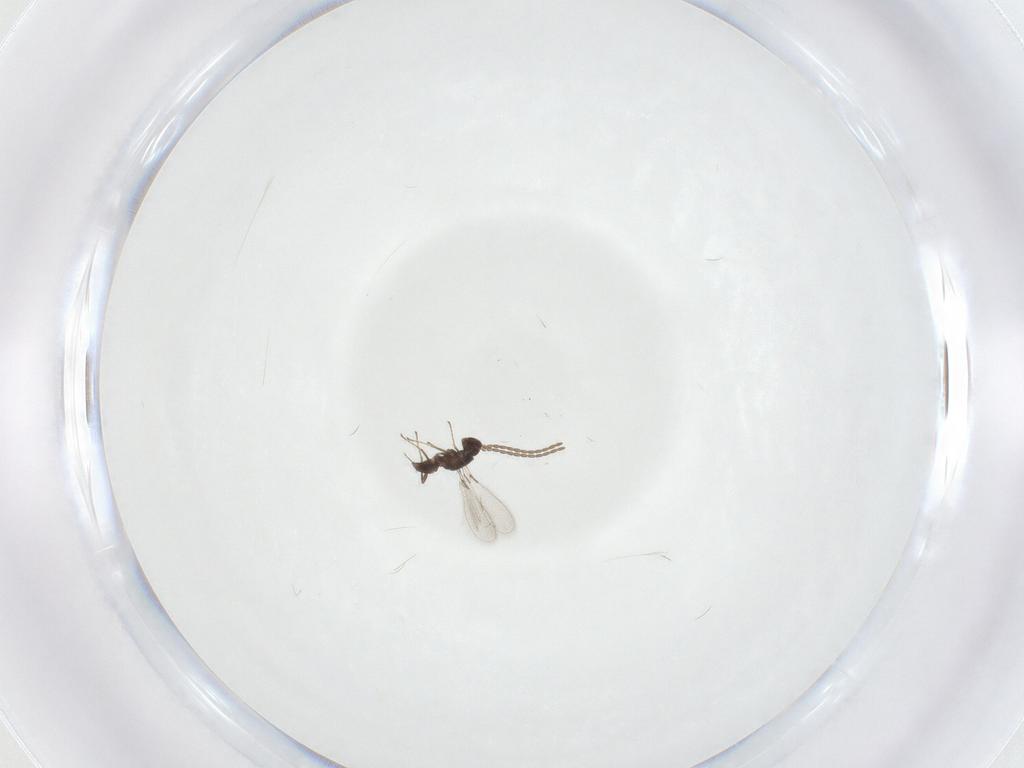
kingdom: Animalia
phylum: Arthropoda
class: Insecta
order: Hymenoptera
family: Mymaridae
